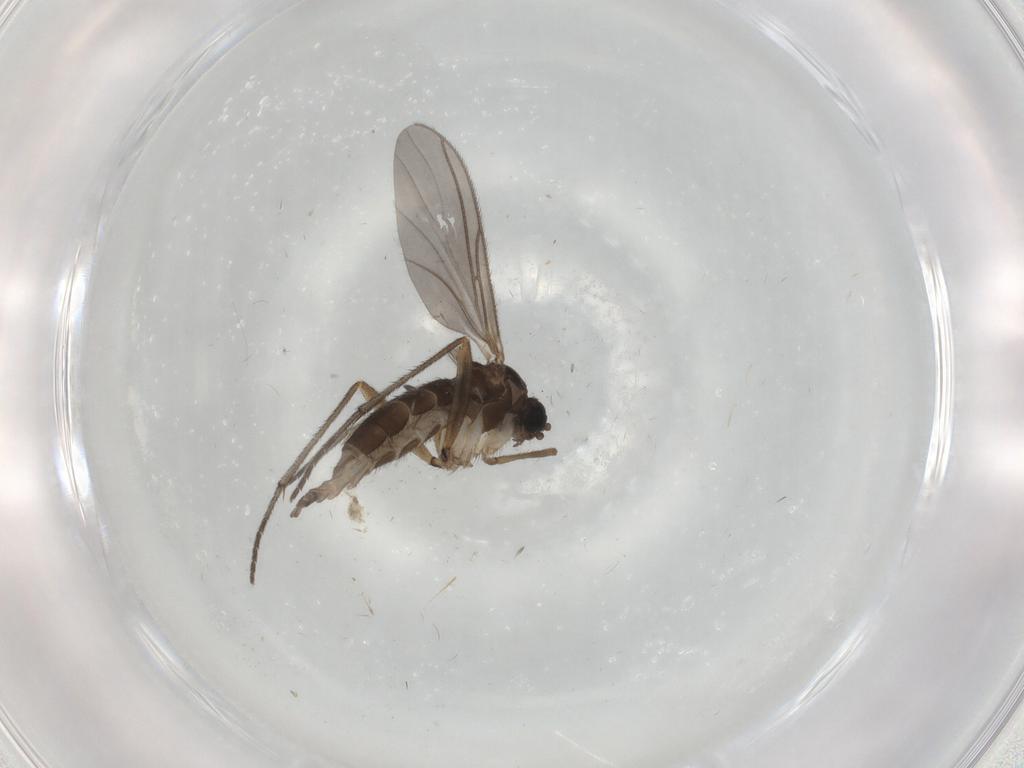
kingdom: Animalia
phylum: Arthropoda
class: Insecta
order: Diptera
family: Sciaridae
